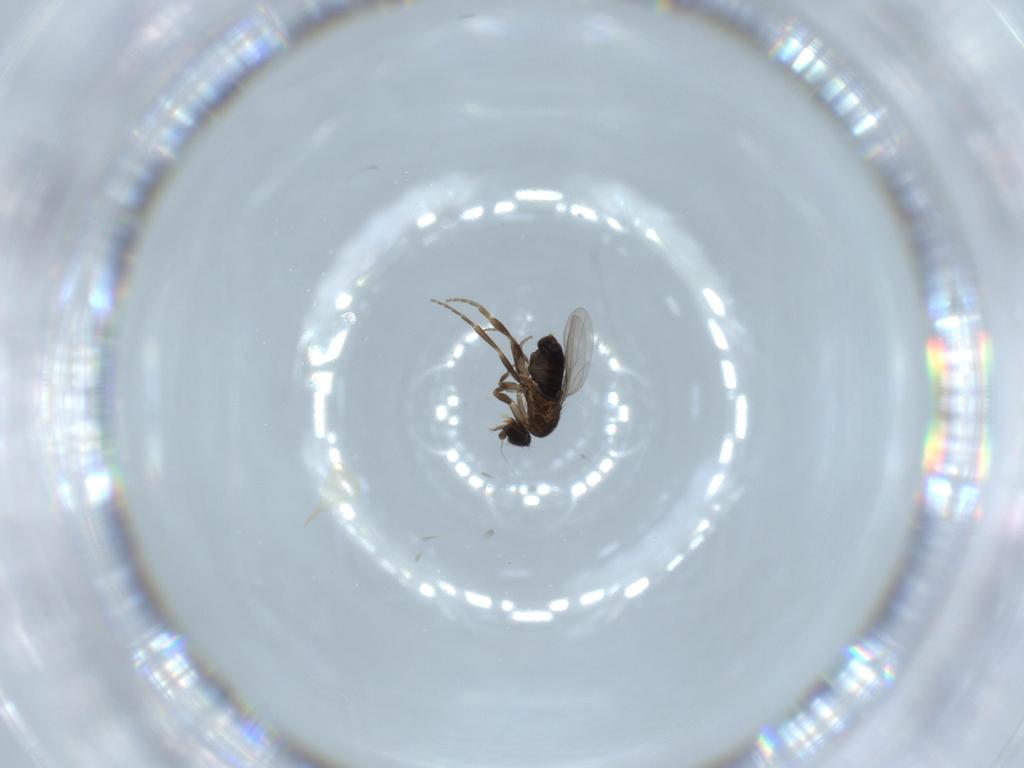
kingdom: Animalia
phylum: Arthropoda
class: Insecta
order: Diptera
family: Phoridae
